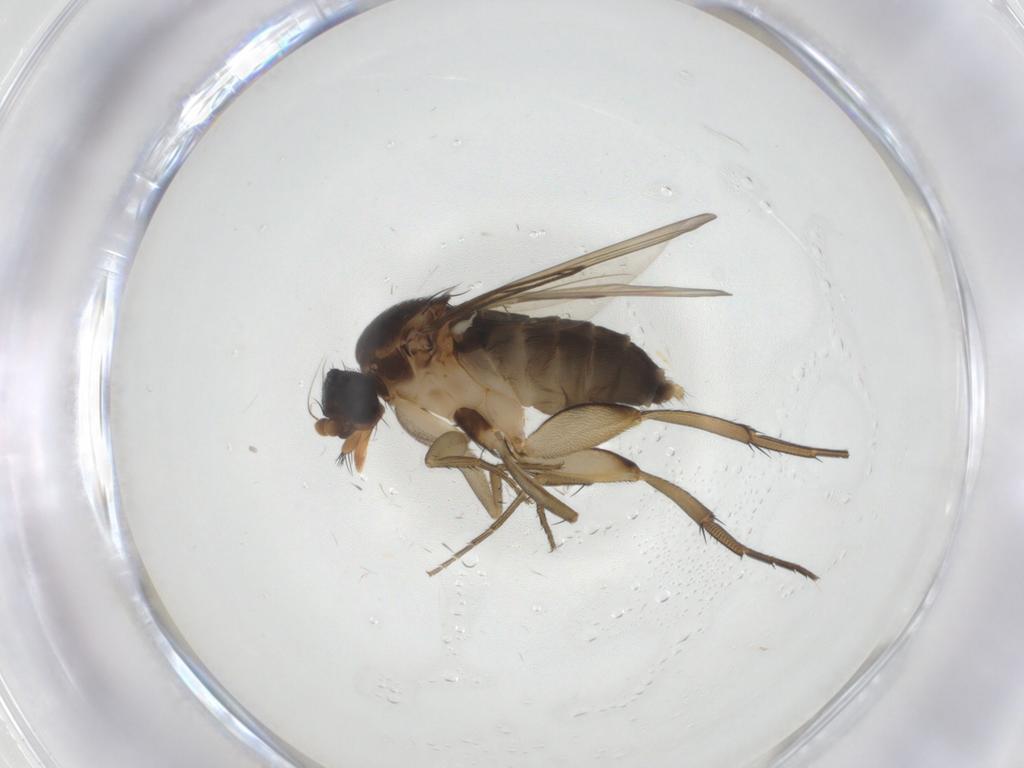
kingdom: Animalia
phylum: Arthropoda
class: Insecta
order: Diptera
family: Phoridae
